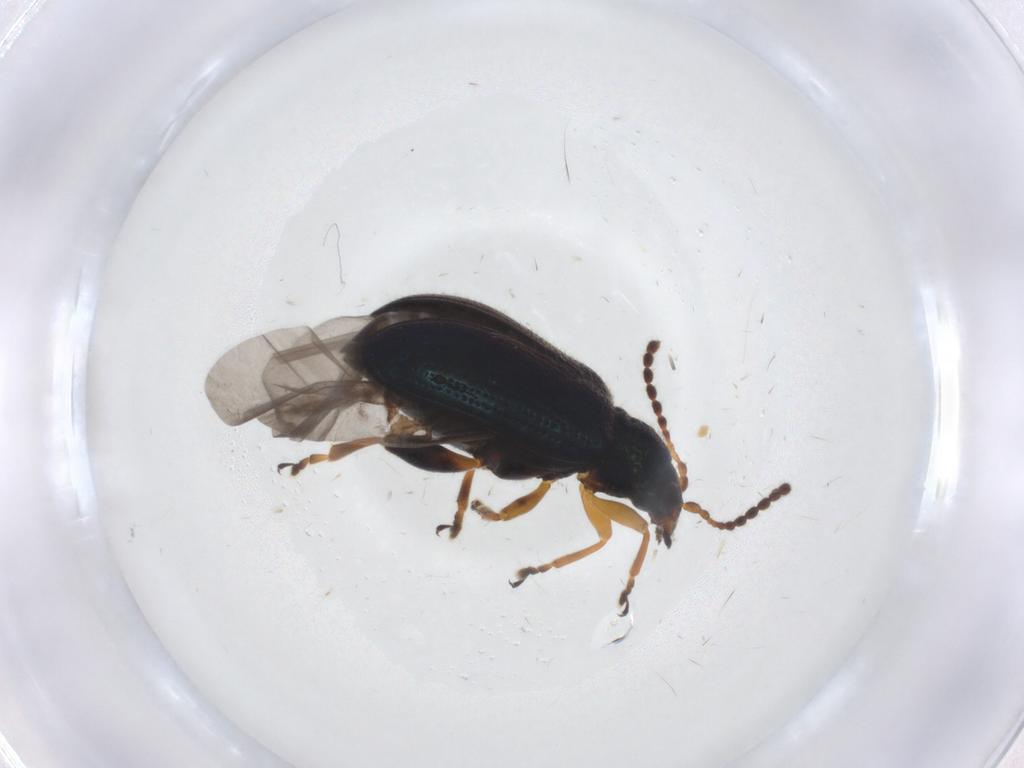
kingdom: Animalia
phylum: Arthropoda
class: Insecta
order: Coleoptera
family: Chrysomelidae
